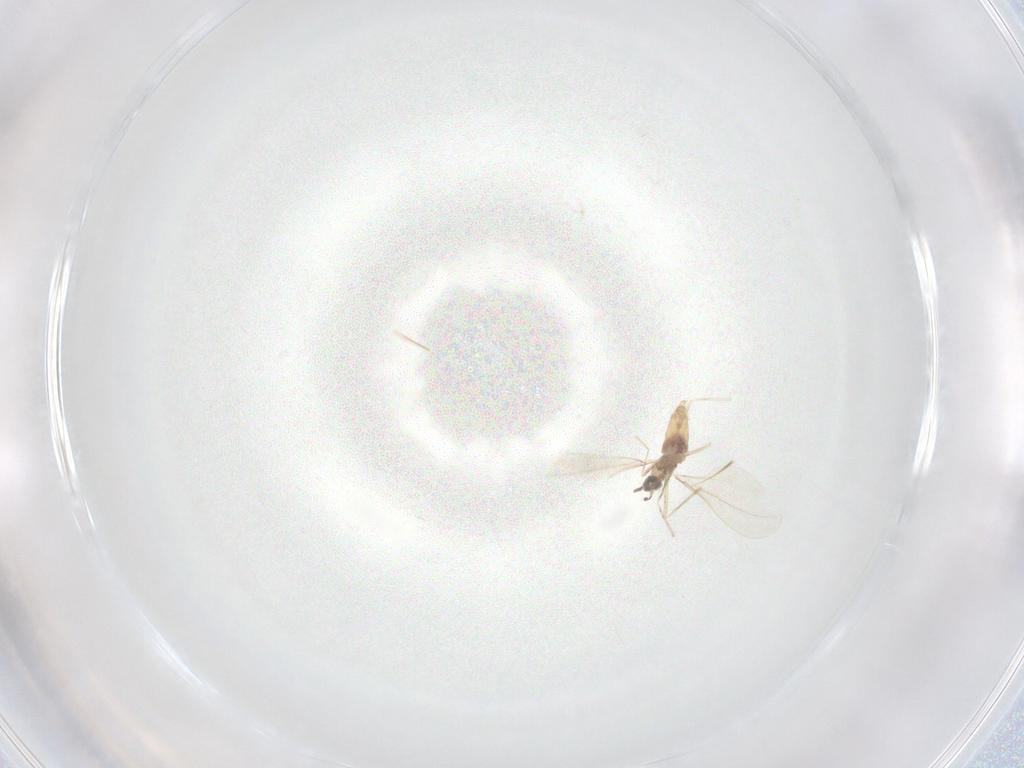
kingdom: Animalia
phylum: Arthropoda
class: Insecta
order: Diptera
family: Cecidomyiidae
